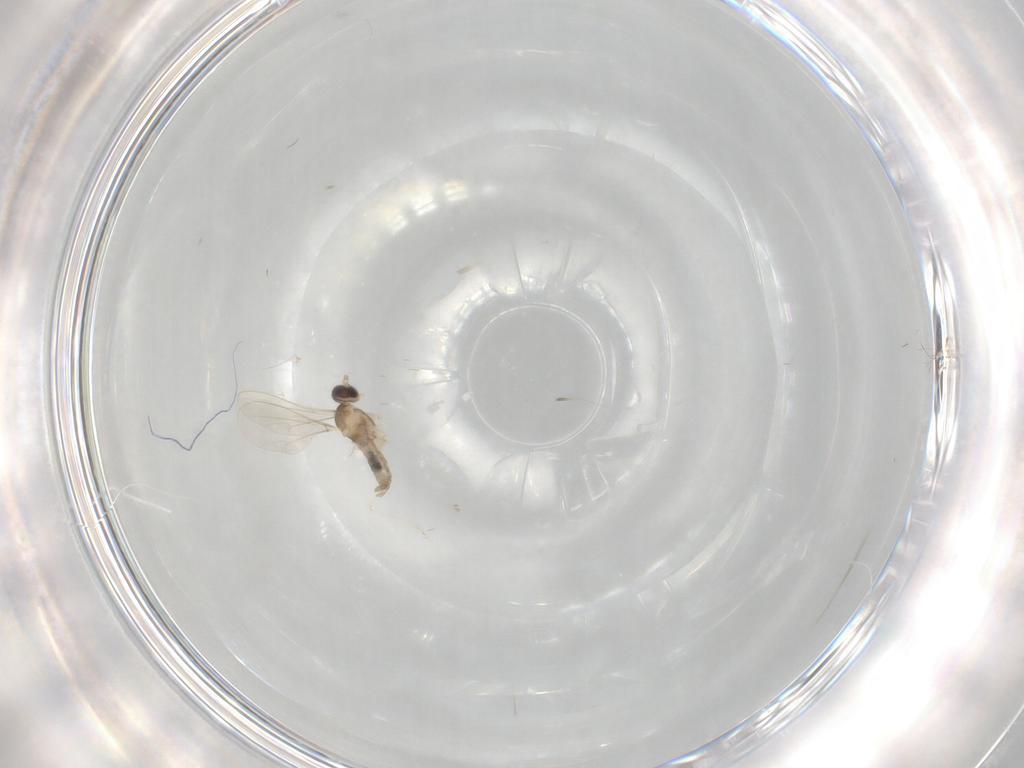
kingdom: Animalia
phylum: Arthropoda
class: Insecta
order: Diptera
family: Cecidomyiidae
